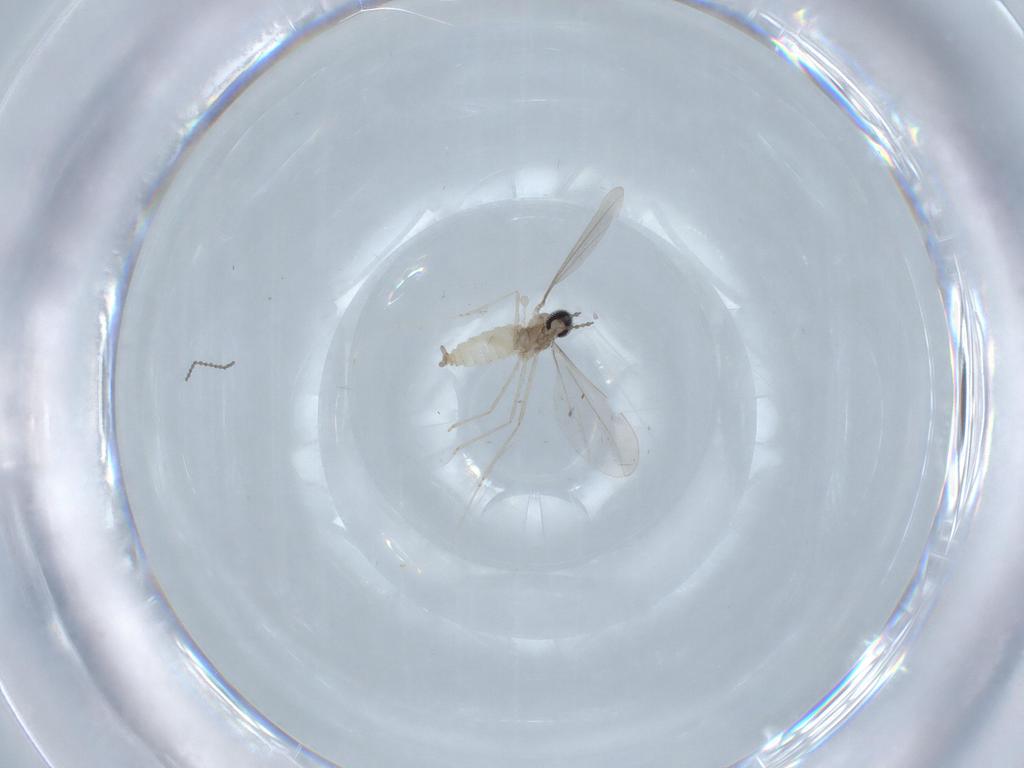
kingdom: Animalia
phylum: Arthropoda
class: Insecta
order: Diptera
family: Cecidomyiidae
